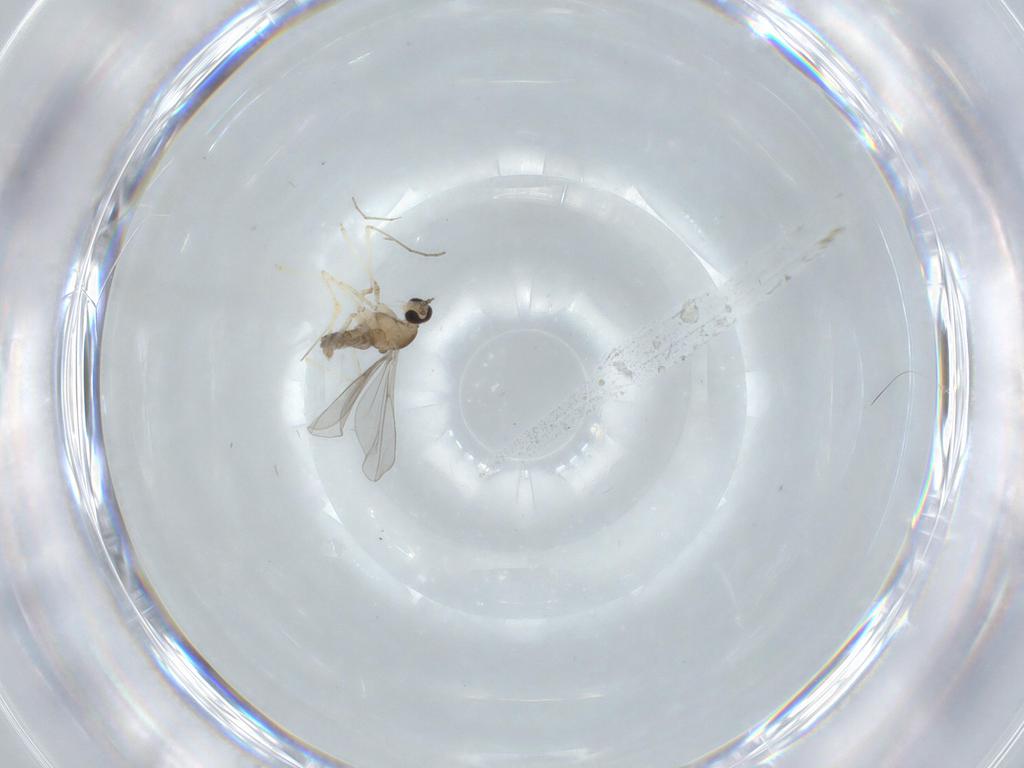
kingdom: Animalia
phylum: Arthropoda
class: Insecta
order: Diptera
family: Cecidomyiidae
